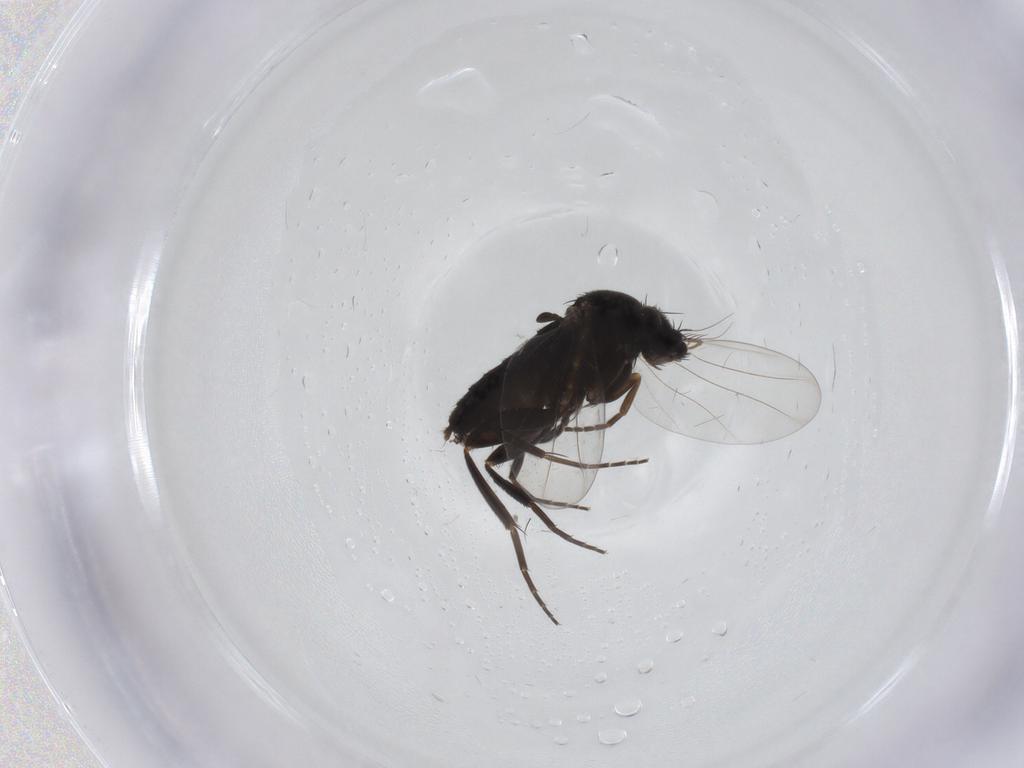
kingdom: Animalia
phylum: Arthropoda
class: Insecta
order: Diptera
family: Phoridae
